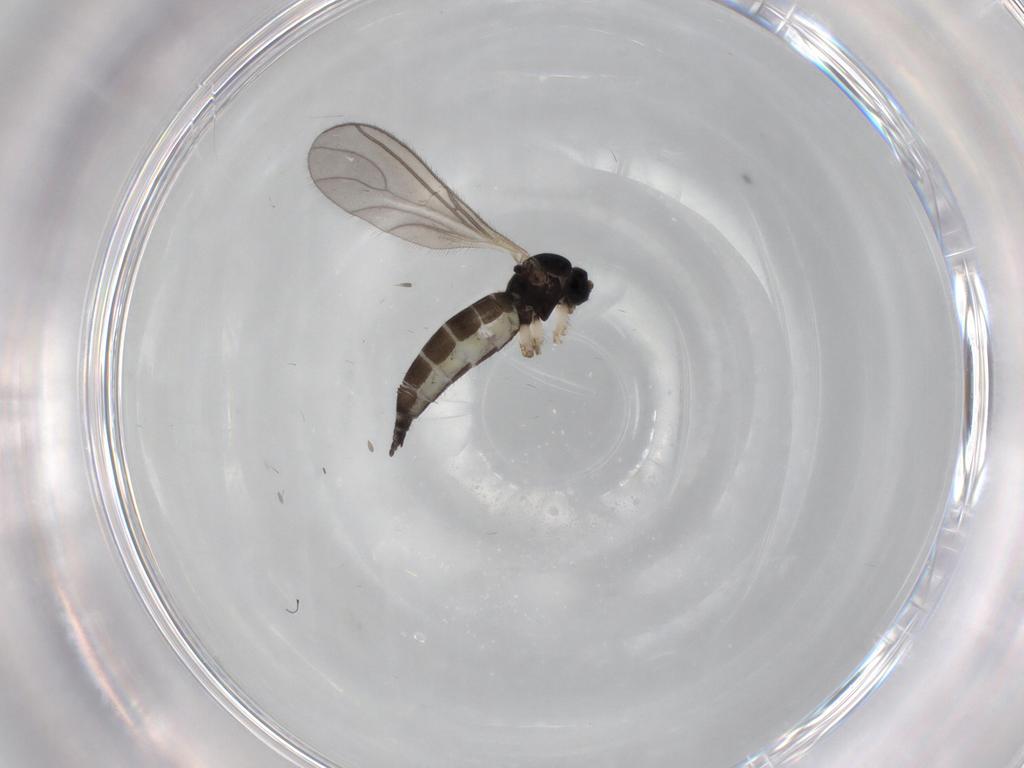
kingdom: Animalia
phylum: Arthropoda
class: Insecta
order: Diptera
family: Sciaridae
